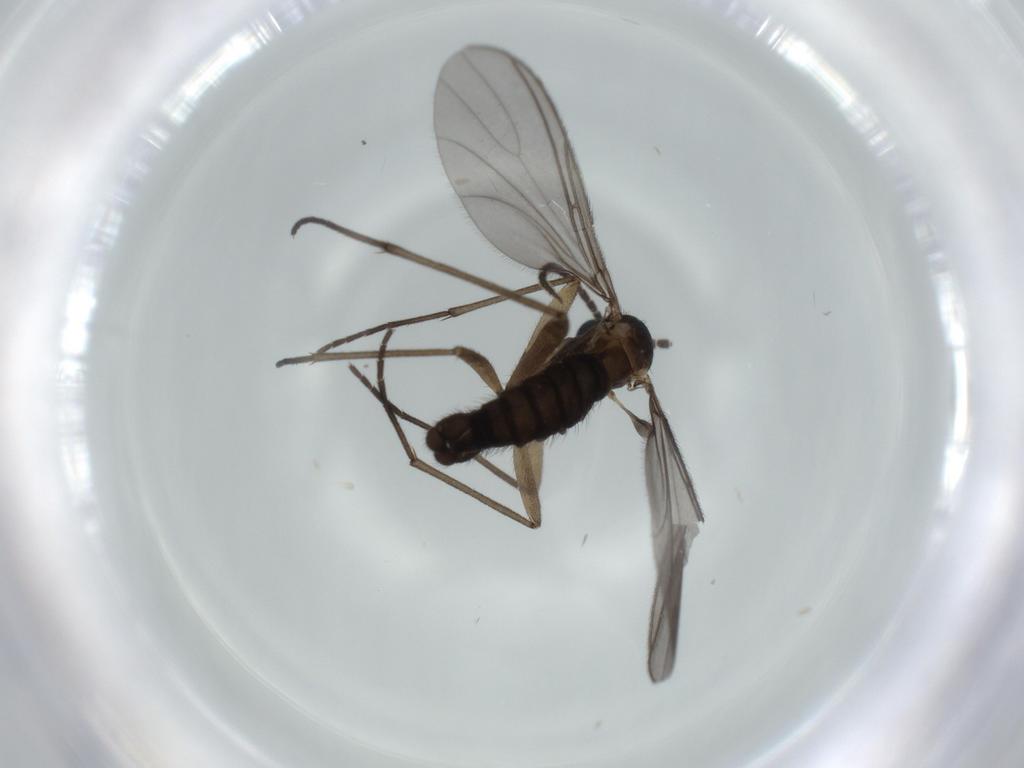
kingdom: Animalia
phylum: Arthropoda
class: Insecta
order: Diptera
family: Sciaridae
